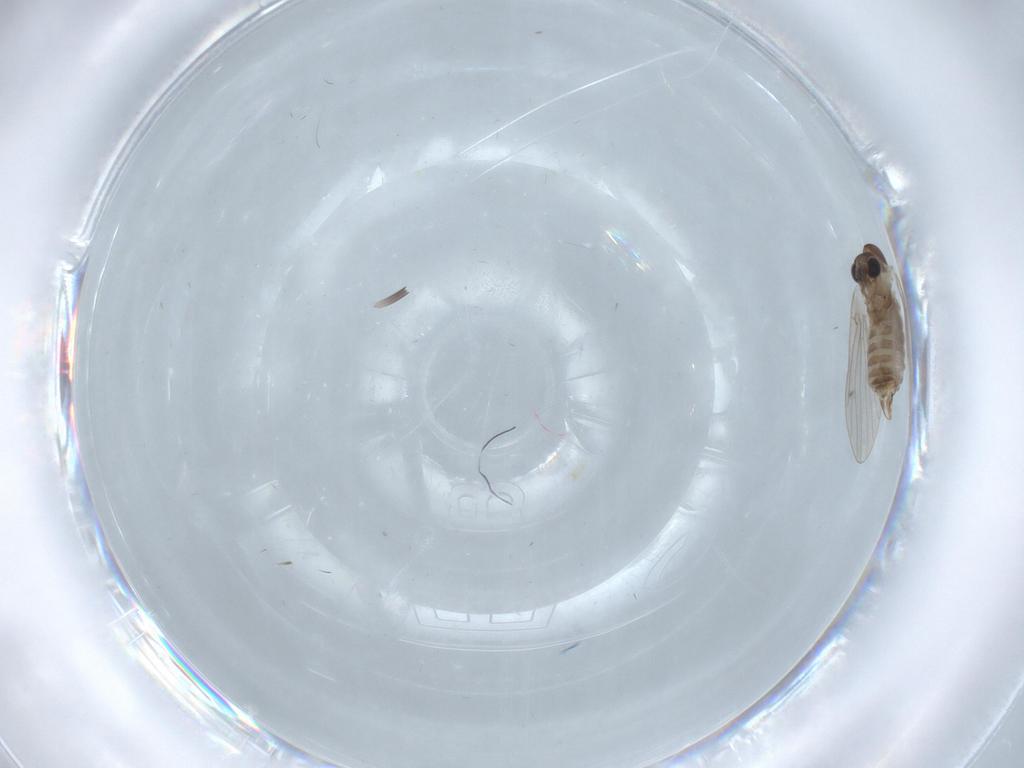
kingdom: Animalia
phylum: Arthropoda
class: Insecta
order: Diptera
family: Psychodidae
